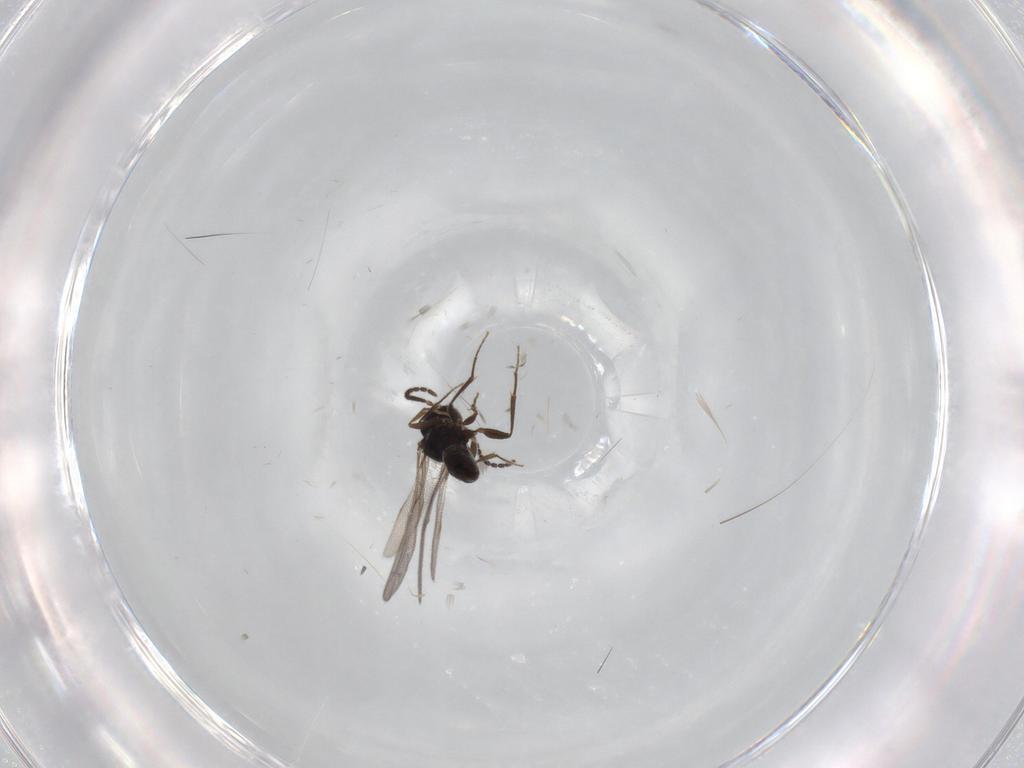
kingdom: Animalia
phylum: Arthropoda
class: Insecta
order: Hymenoptera
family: Bethylidae
